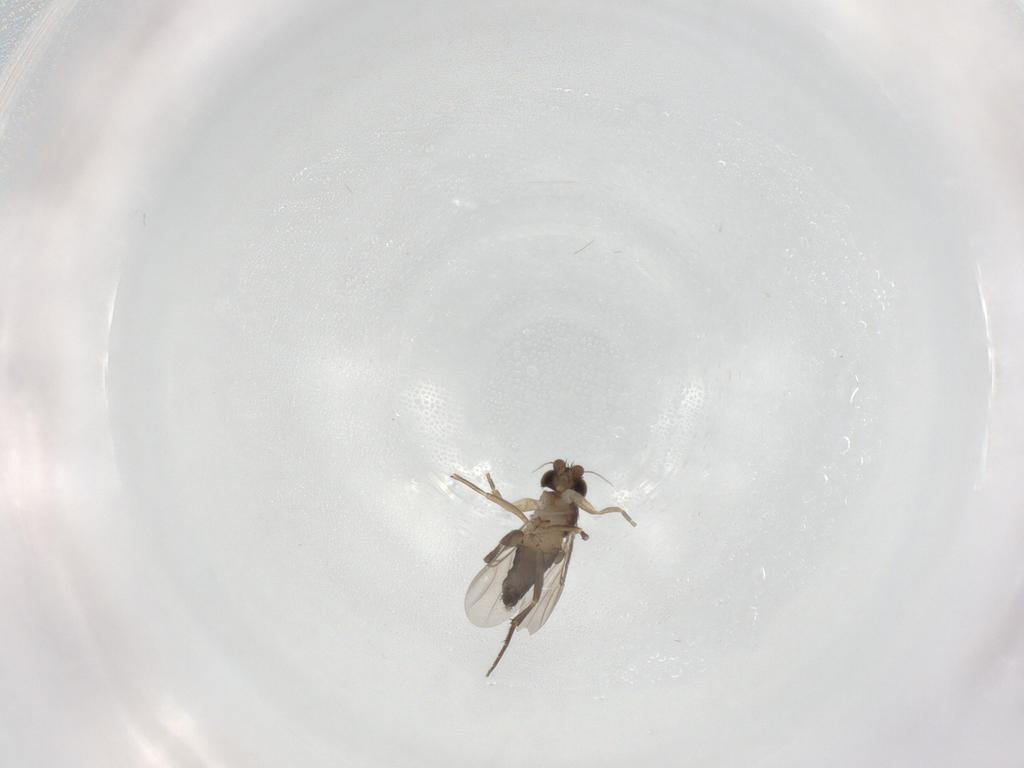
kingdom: Animalia
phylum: Arthropoda
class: Insecta
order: Diptera
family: Phoridae
